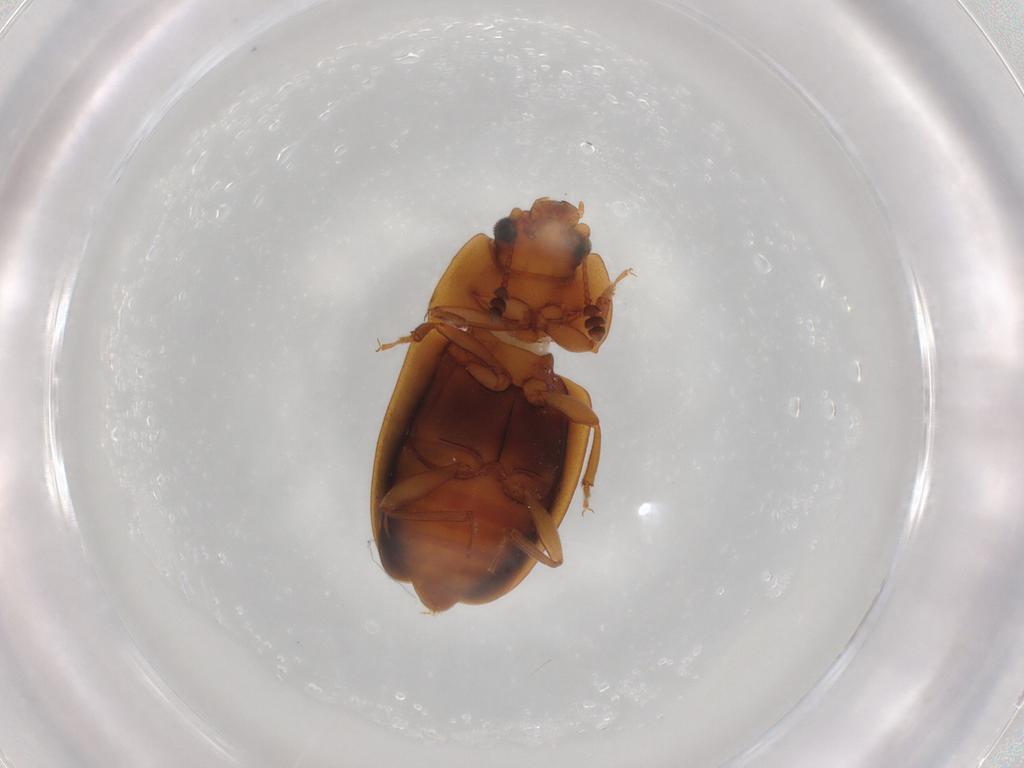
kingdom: Animalia
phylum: Arthropoda
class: Insecta
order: Coleoptera
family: Nitidulidae
